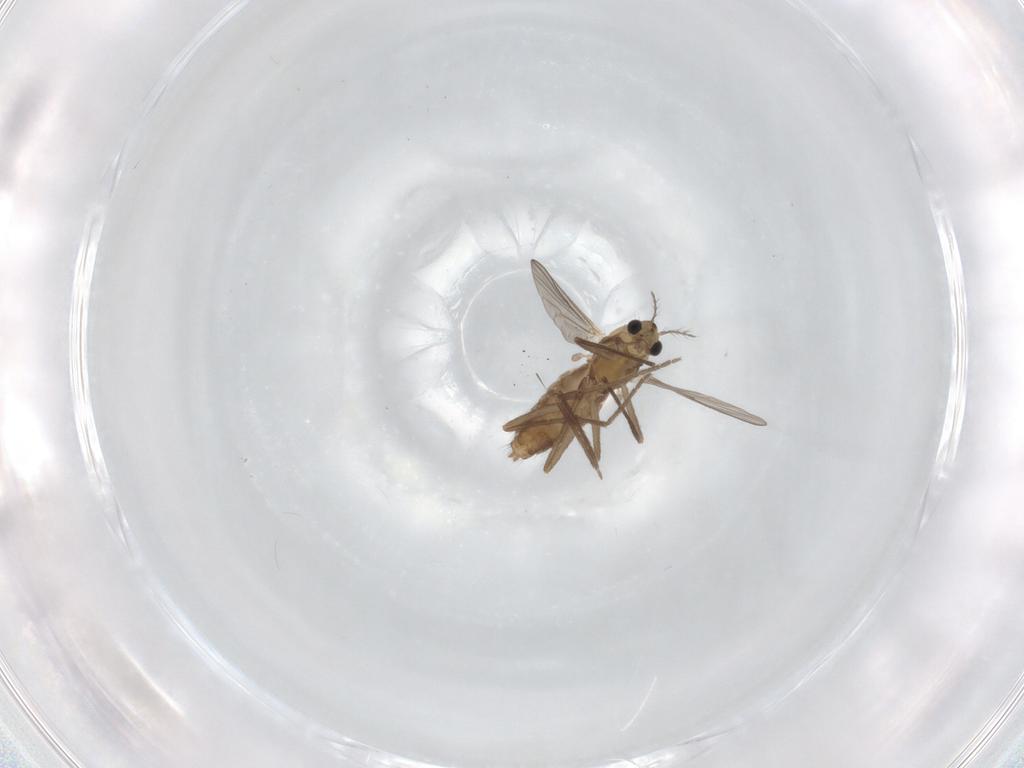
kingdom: Animalia
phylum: Arthropoda
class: Insecta
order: Diptera
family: Chironomidae
